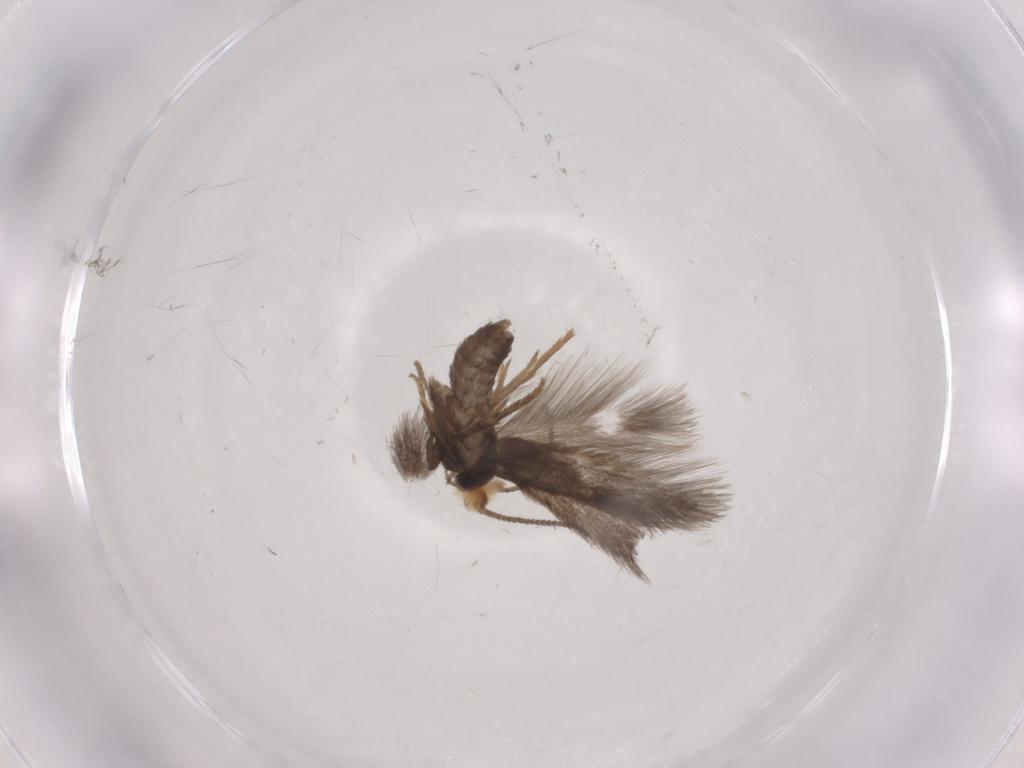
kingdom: Animalia
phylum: Arthropoda
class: Insecta
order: Lepidoptera
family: Nepticulidae
